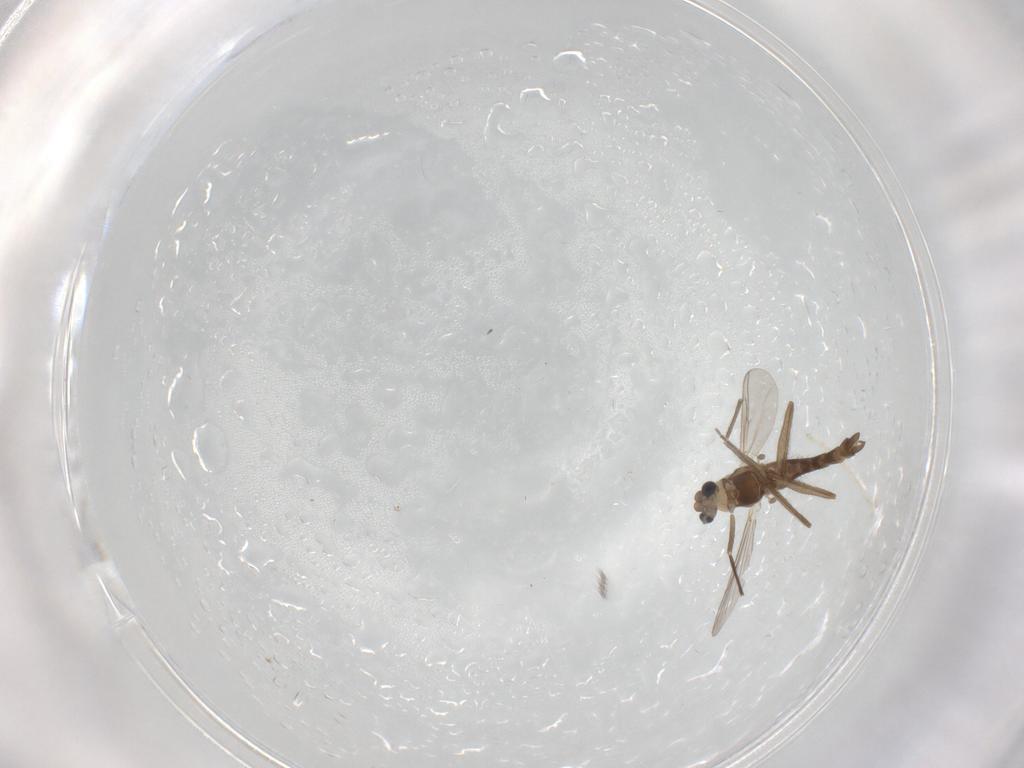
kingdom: Animalia
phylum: Arthropoda
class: Insecta
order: Diptera
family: Chironomidae
